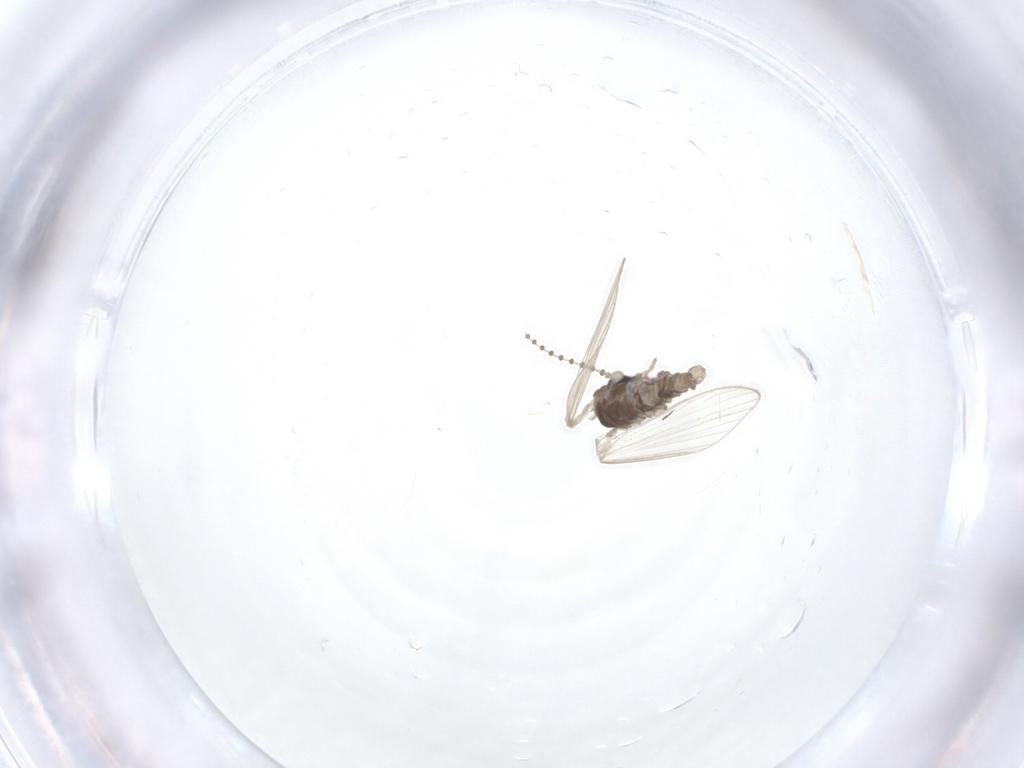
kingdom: Animalia
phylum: Arthropoda
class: Insecta
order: Diptera
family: Psychodidae
